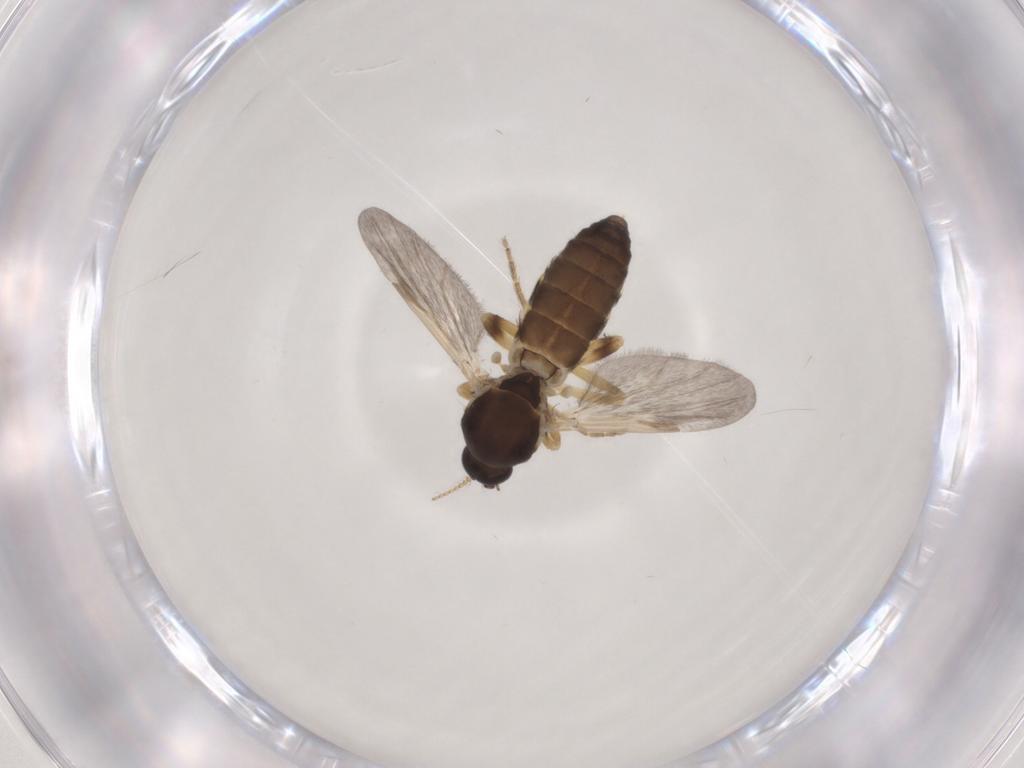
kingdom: Animalia
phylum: Arthropoda
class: Insecta
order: Diptera
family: Ceratopogonidae
